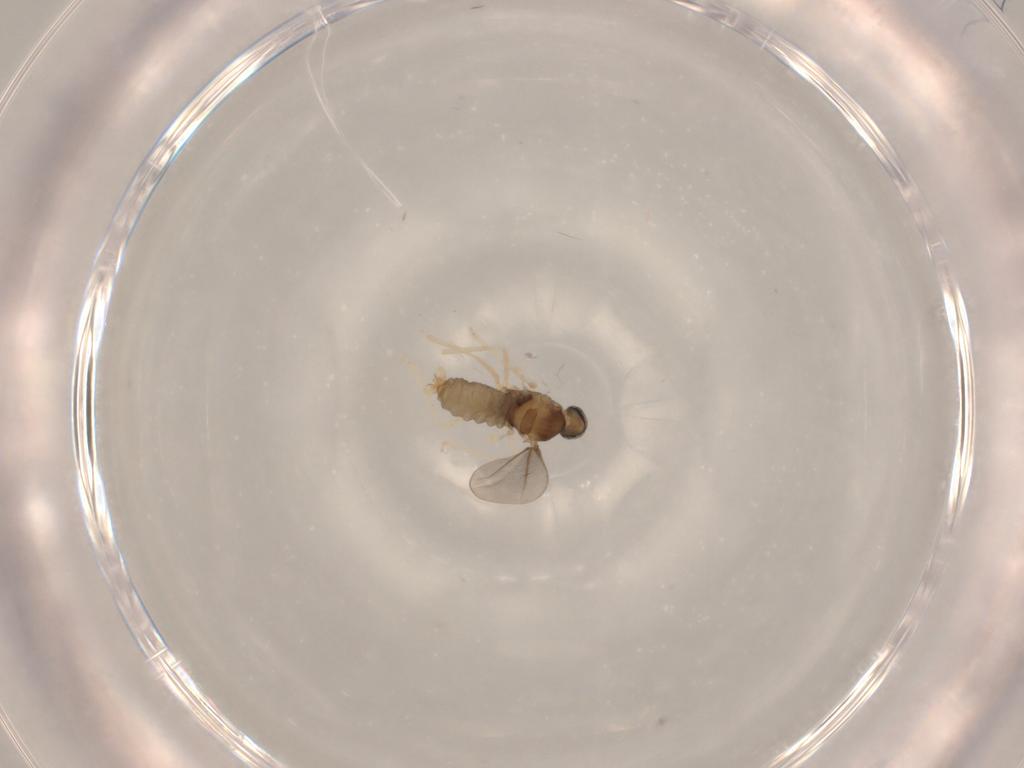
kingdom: Animalia
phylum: Arthropoda
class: Insecta
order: Diptera
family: Cecidomyiidae
